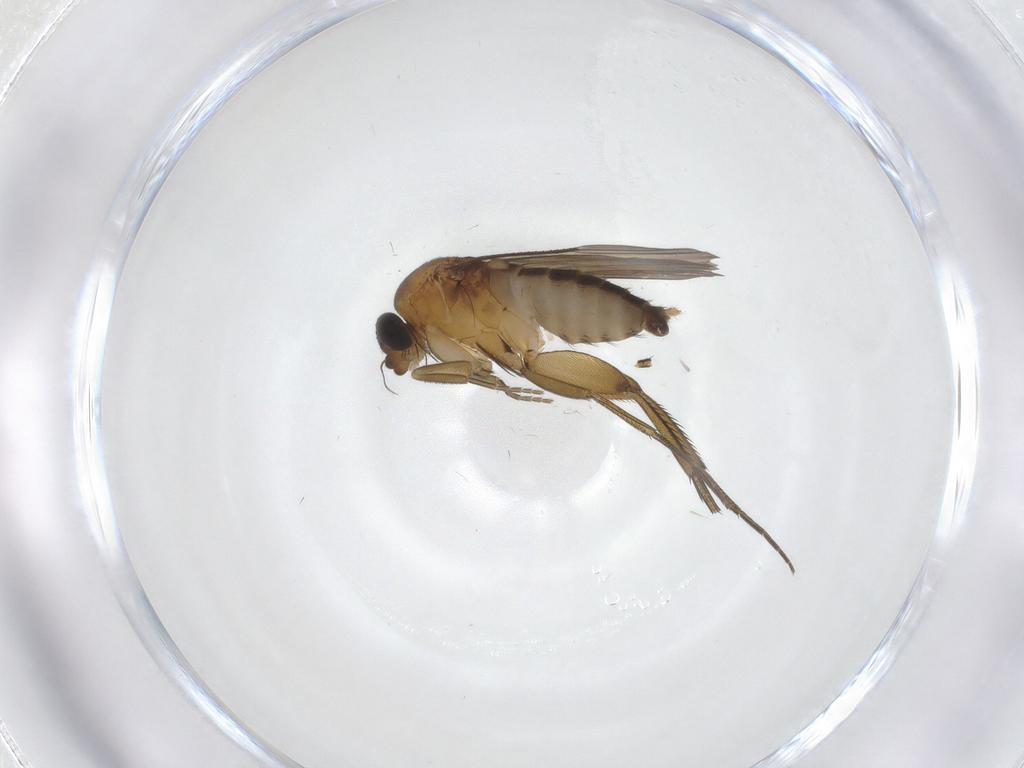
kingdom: Animalia
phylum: Arthropoda
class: Insecta
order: Diptera
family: Phoridae
